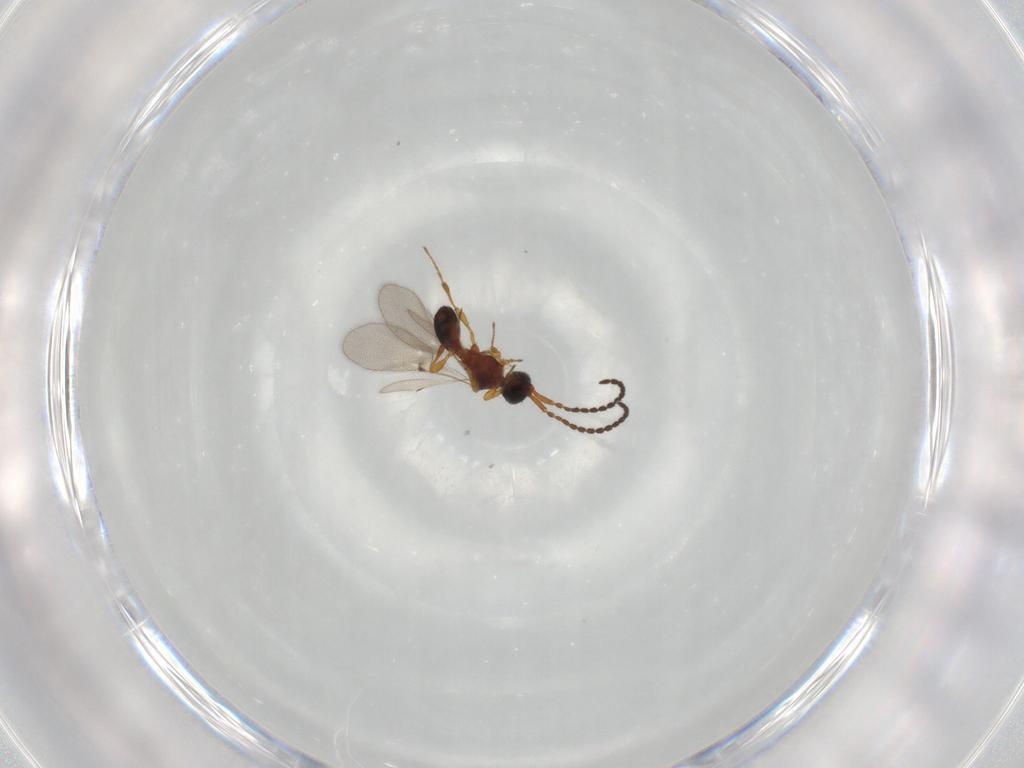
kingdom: Animalia
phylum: Arthropoda
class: Insecta
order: Hymenoptera
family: Diapriidae
